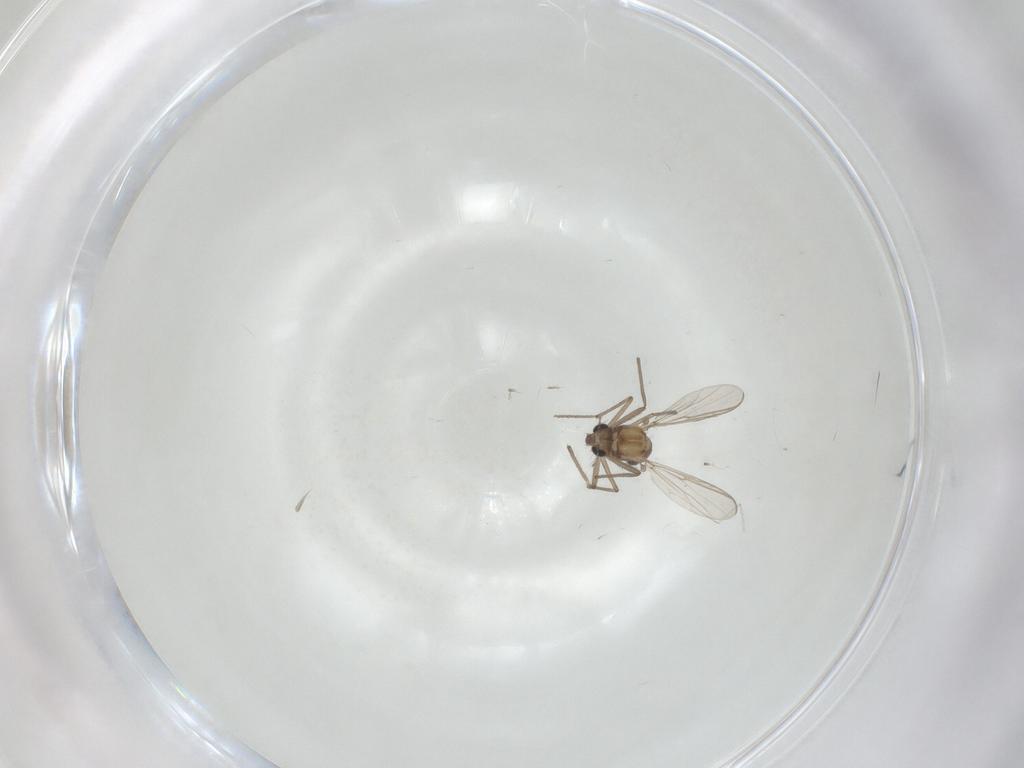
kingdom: Animalia
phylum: Arthropoda
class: Insecta
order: Diptera
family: Chironomidae
